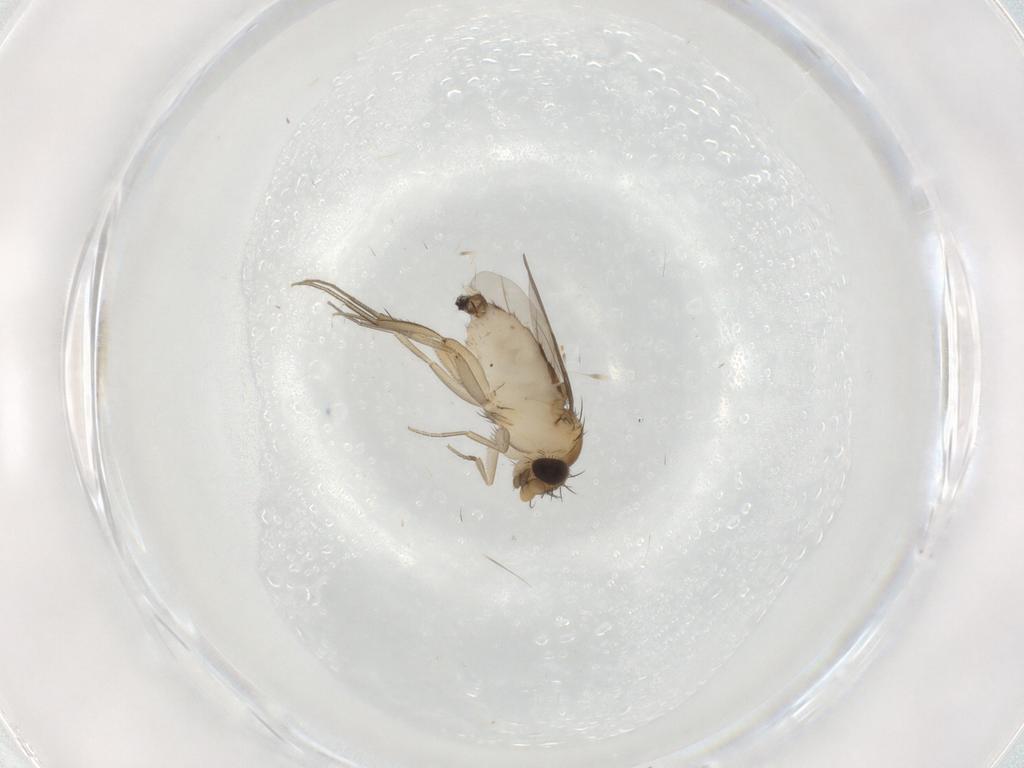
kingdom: Animalia
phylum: Arthropoda
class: Insecta
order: Diptera
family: Phoridae
